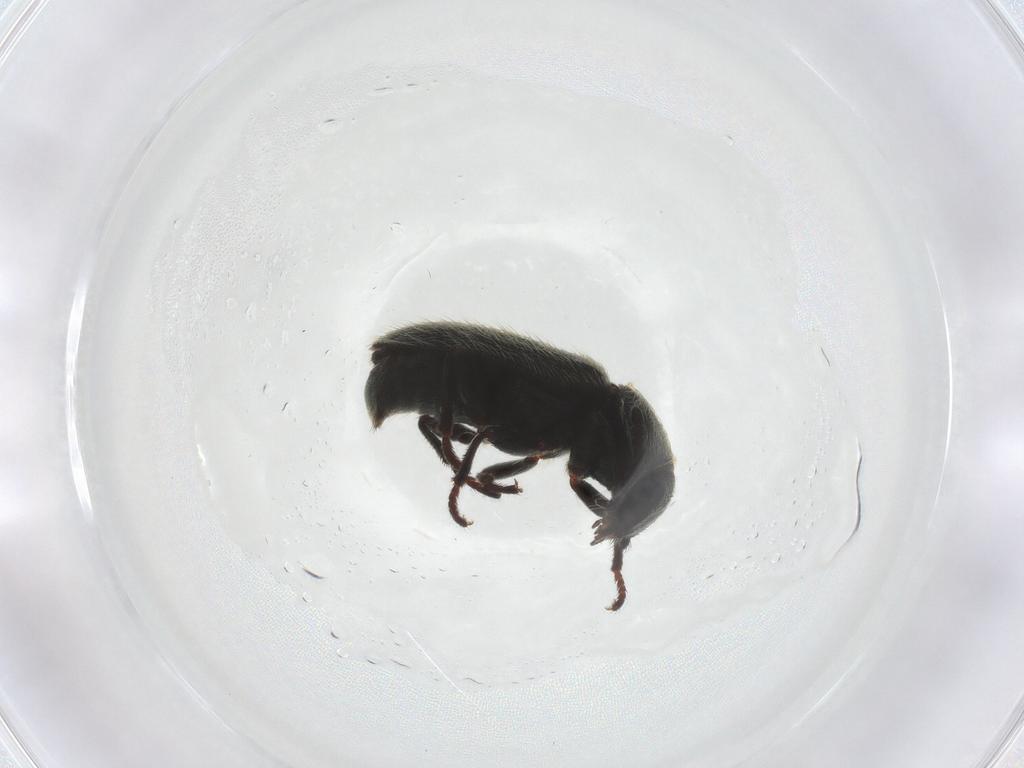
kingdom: Animalia
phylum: Arthropoda
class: Insecta
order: Coleoptera
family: Dasytidae
